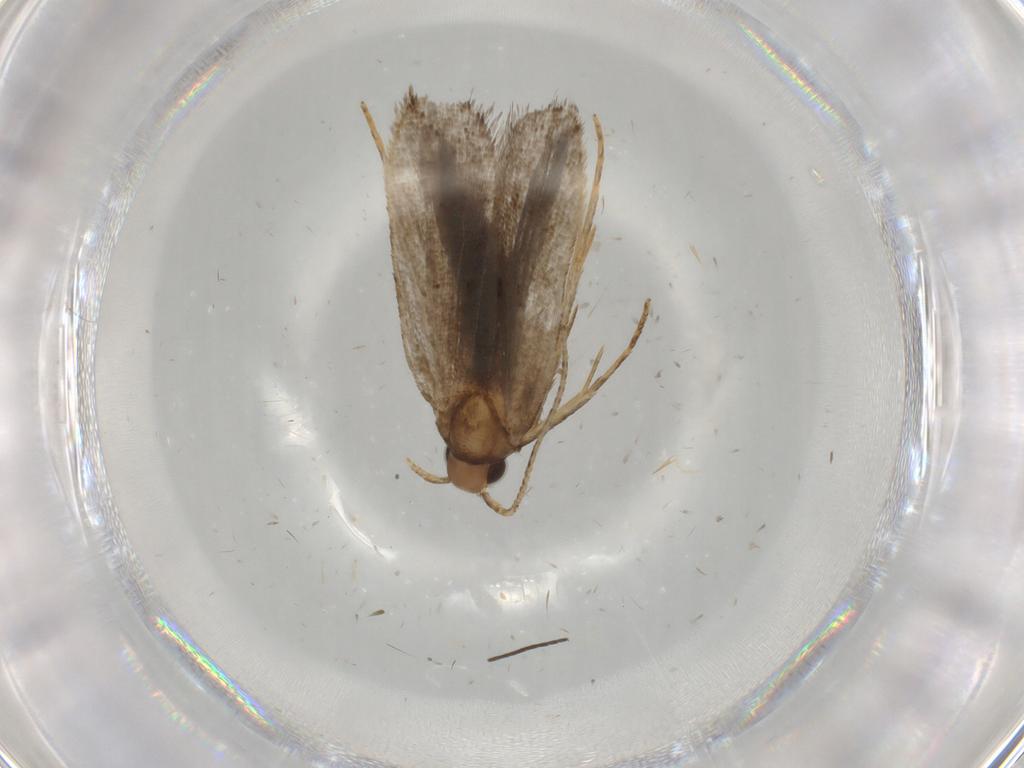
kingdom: Animalia
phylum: Arthropoda
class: Insecta
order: Lepidoptera
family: Gelechiidae
